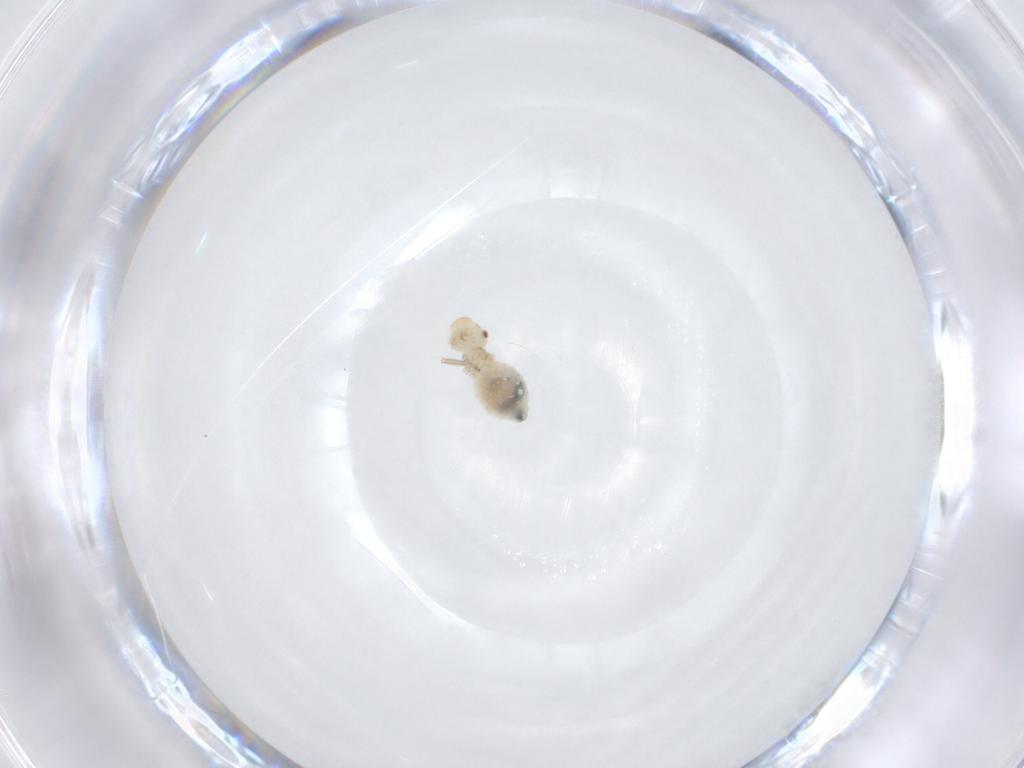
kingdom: Animalia
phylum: Arthropoda
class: Insecta
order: Psocodea
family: Caeciliusidae
